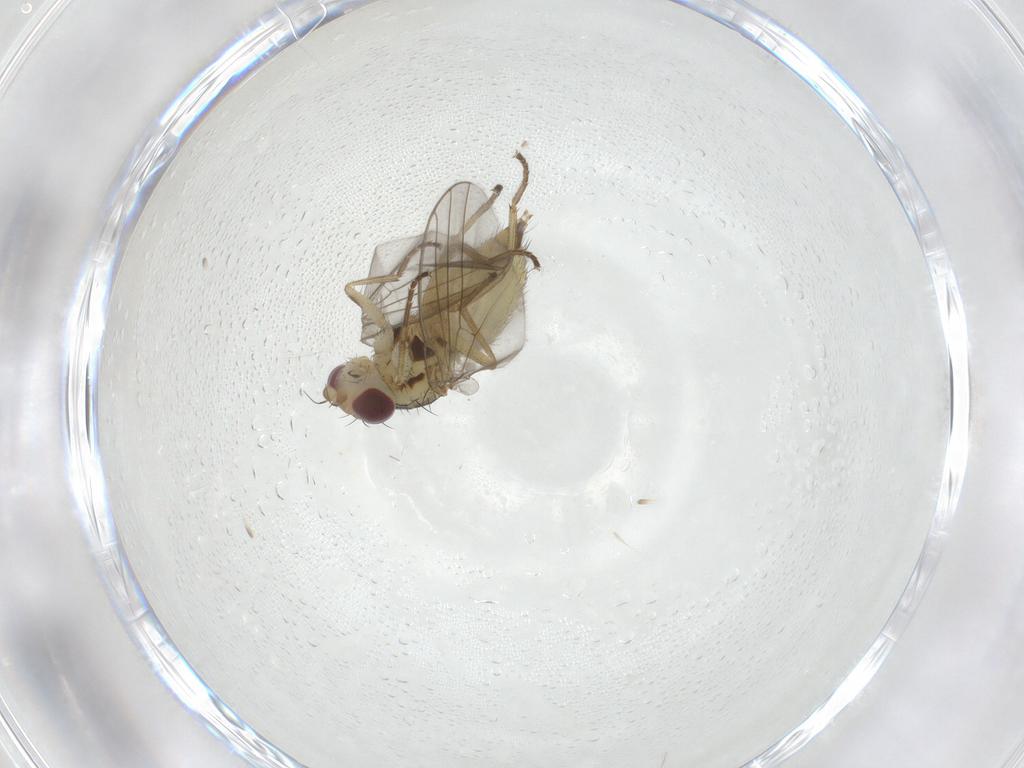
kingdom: Animalia
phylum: Arthropoda
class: Insecta
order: Diptera
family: Agromyzidae
